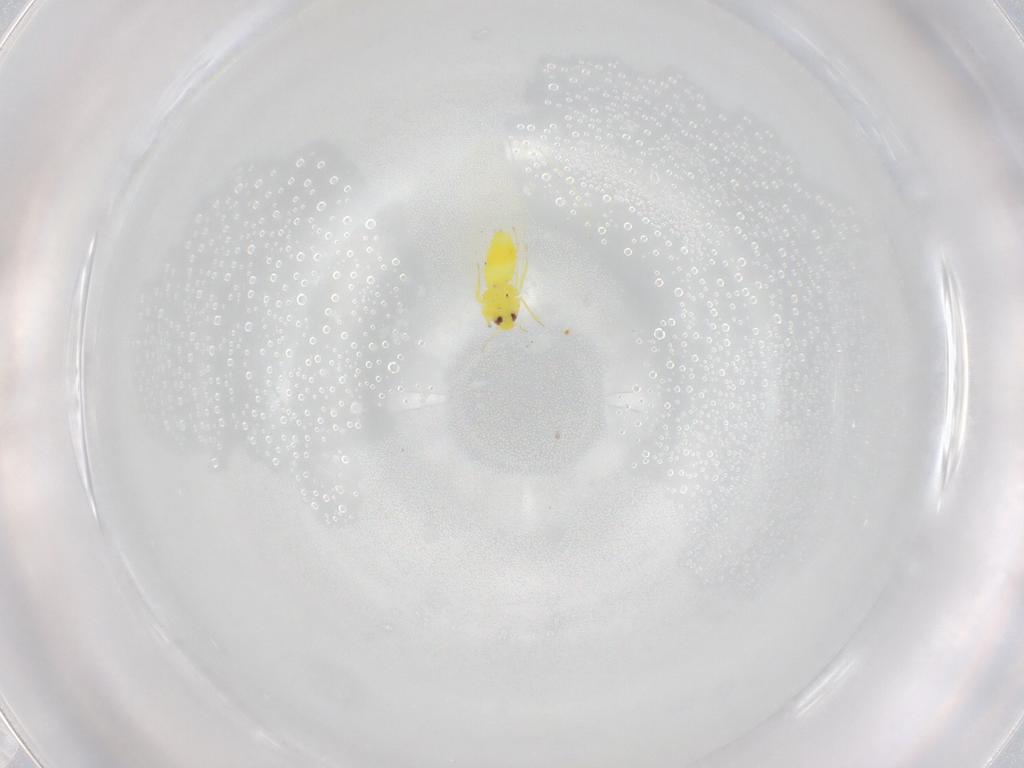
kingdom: Animalia
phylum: Arthropoda
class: Insecta
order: Hemiptera
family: Aleyrodidae
